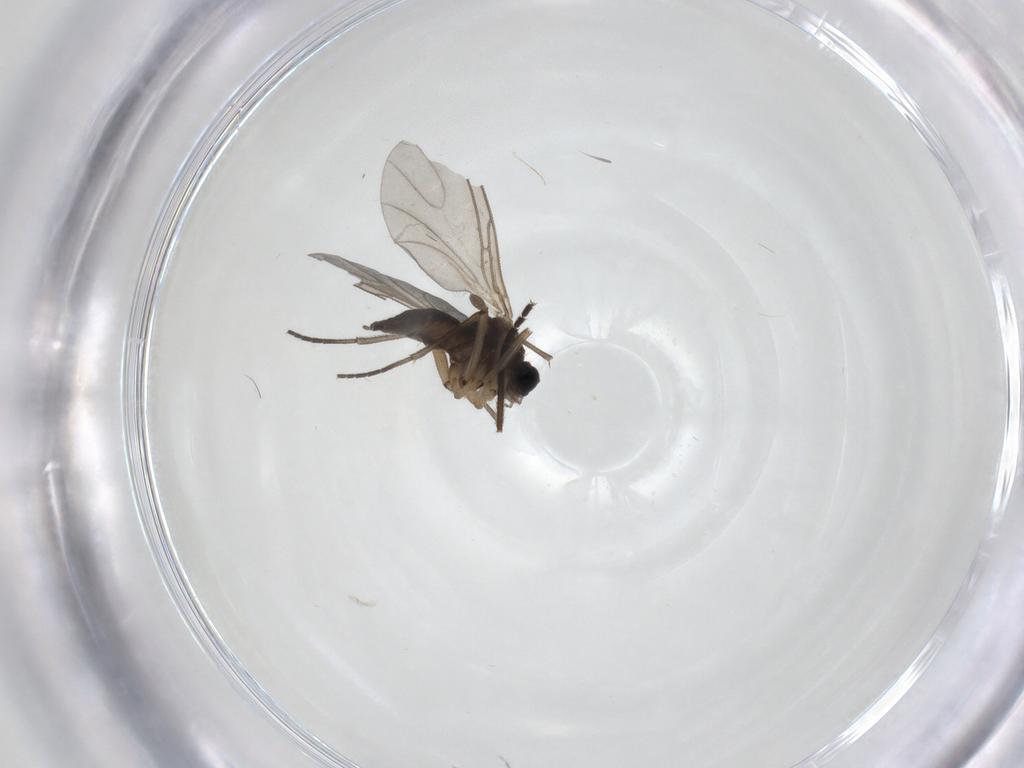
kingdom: Animalia
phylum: Arthropoda
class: Insecta
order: Diptera
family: Sciaridae
